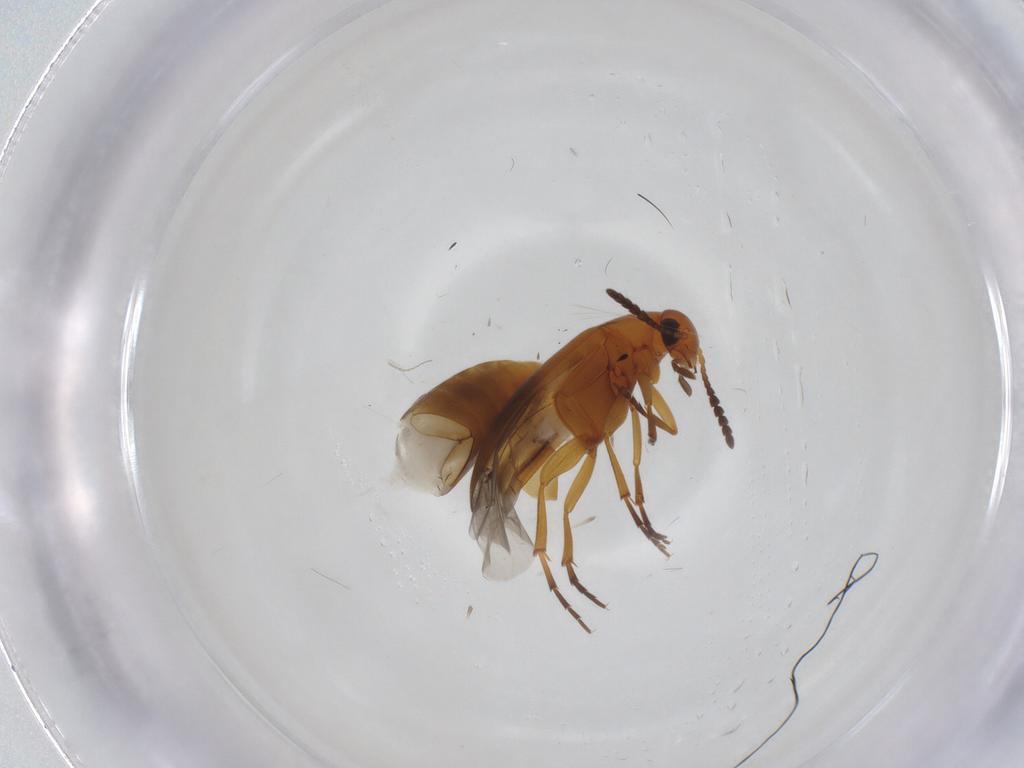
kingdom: Animalia
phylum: Arthropoda
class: Insecta
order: Coleoptera
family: Scraptiidae
